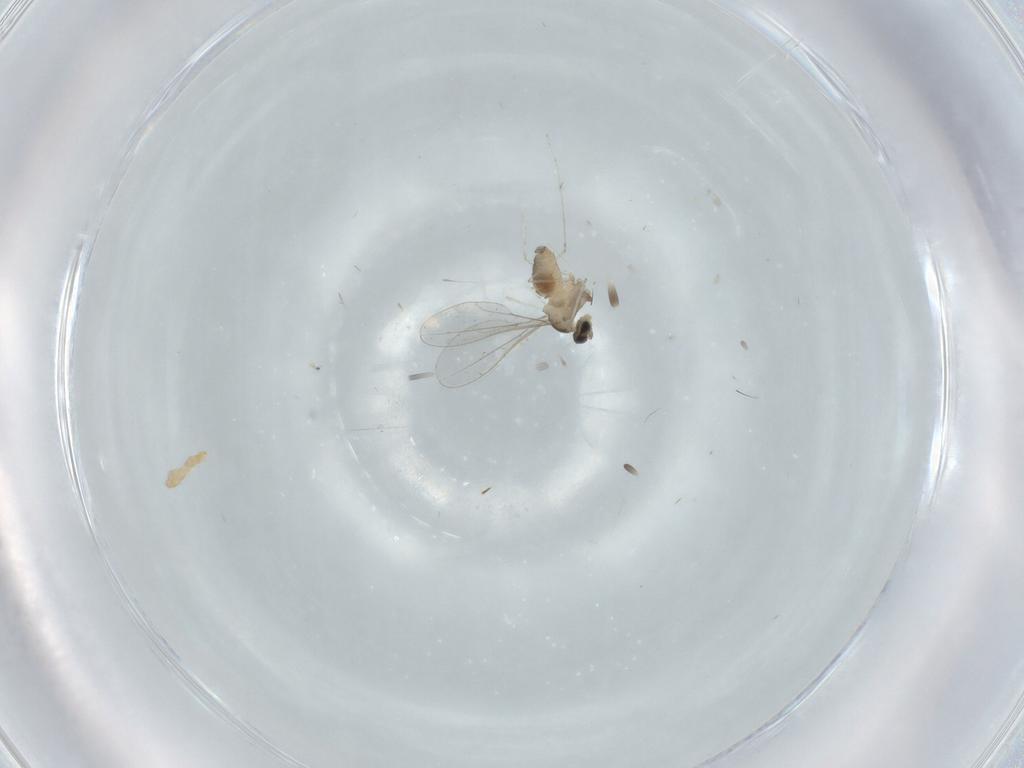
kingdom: Animalia
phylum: Arthropoda
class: Insecta
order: Diptera
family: Cecidomyiidae
